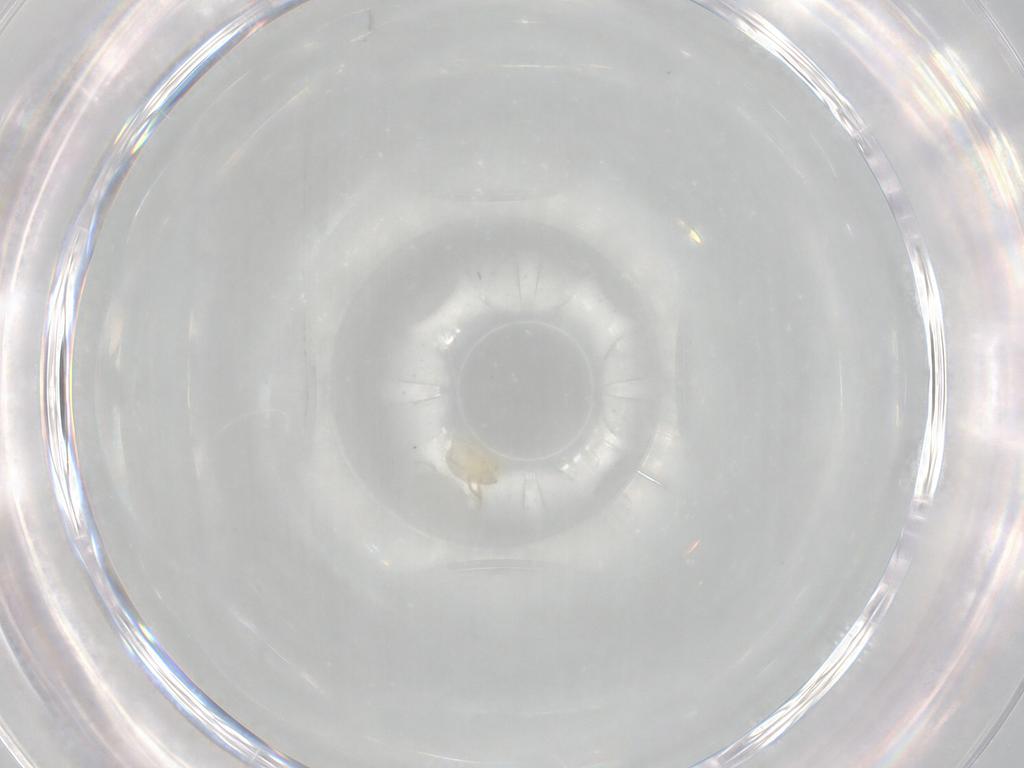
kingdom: Animalia
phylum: Arthropoda
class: Arachnida
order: Trombidiformes
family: Trombidiidae
